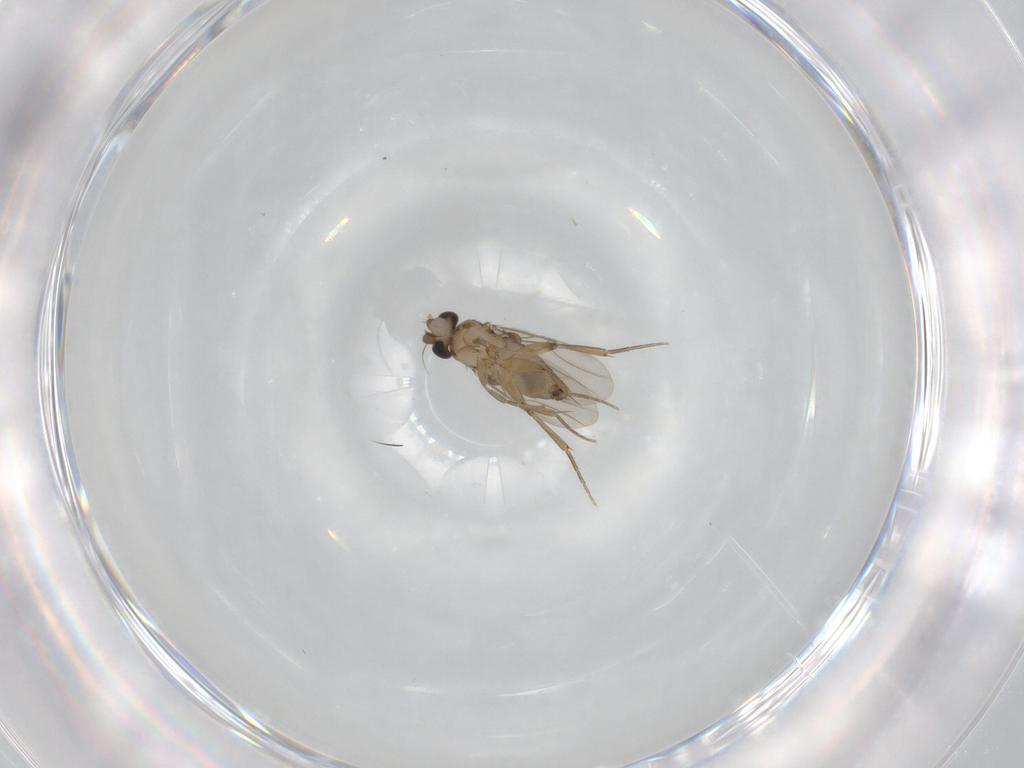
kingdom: Animalia
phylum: Arthropoda
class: Insecta
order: Diptera
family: Phoridae
